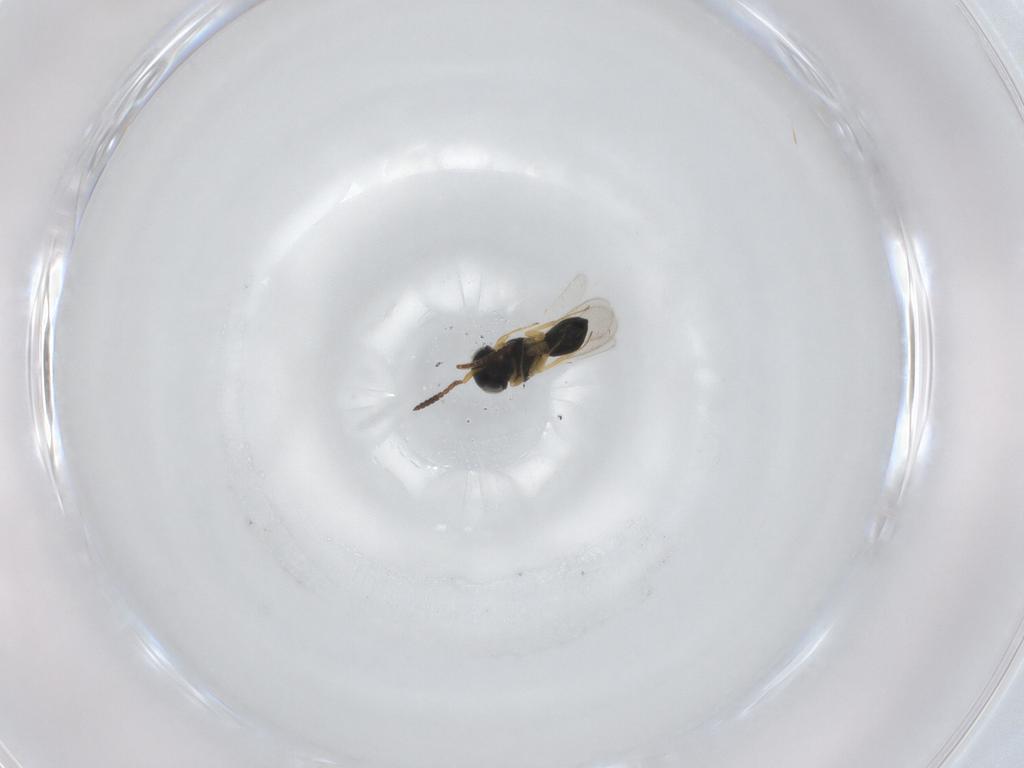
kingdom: Animalia
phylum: Arthropoda
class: Insecta
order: Hymenoptera
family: Scelionidae
